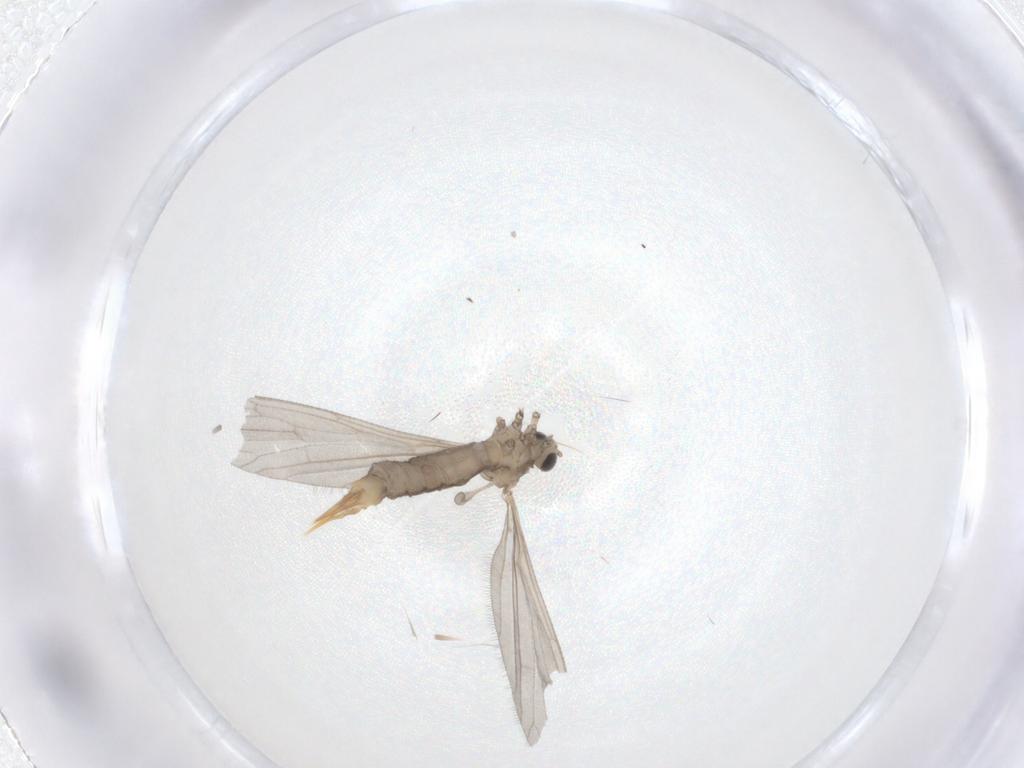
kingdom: Animalia
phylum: Arthropoda
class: Insecta
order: Diptera
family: Limoniidae
